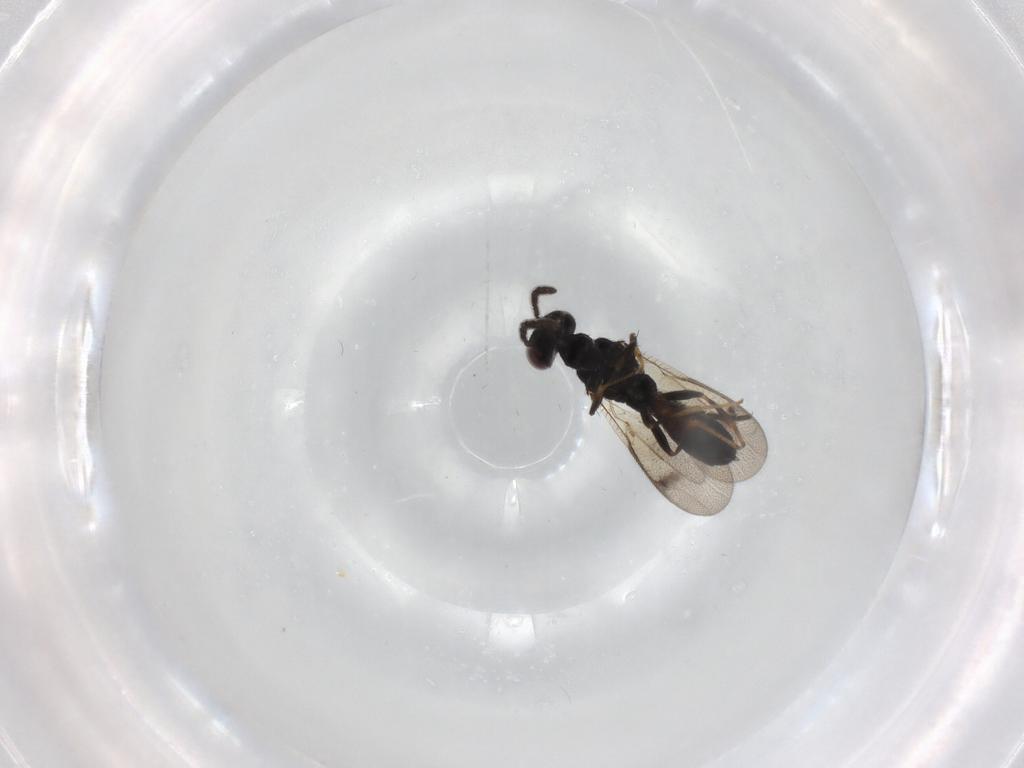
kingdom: Animalia
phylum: Arthropoda
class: Insecta
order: Hymenoptera
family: Pteromalidae
